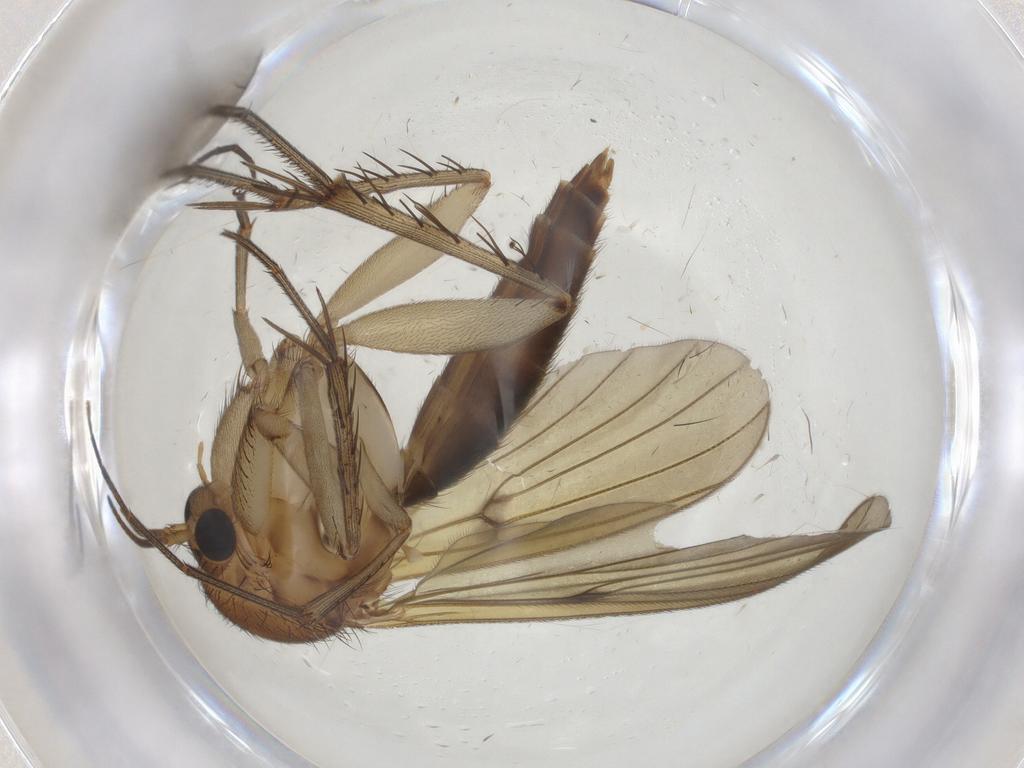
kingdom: Animalia
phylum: Arthropoda
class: Insecta
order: Diptera
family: Mycetophilidae
